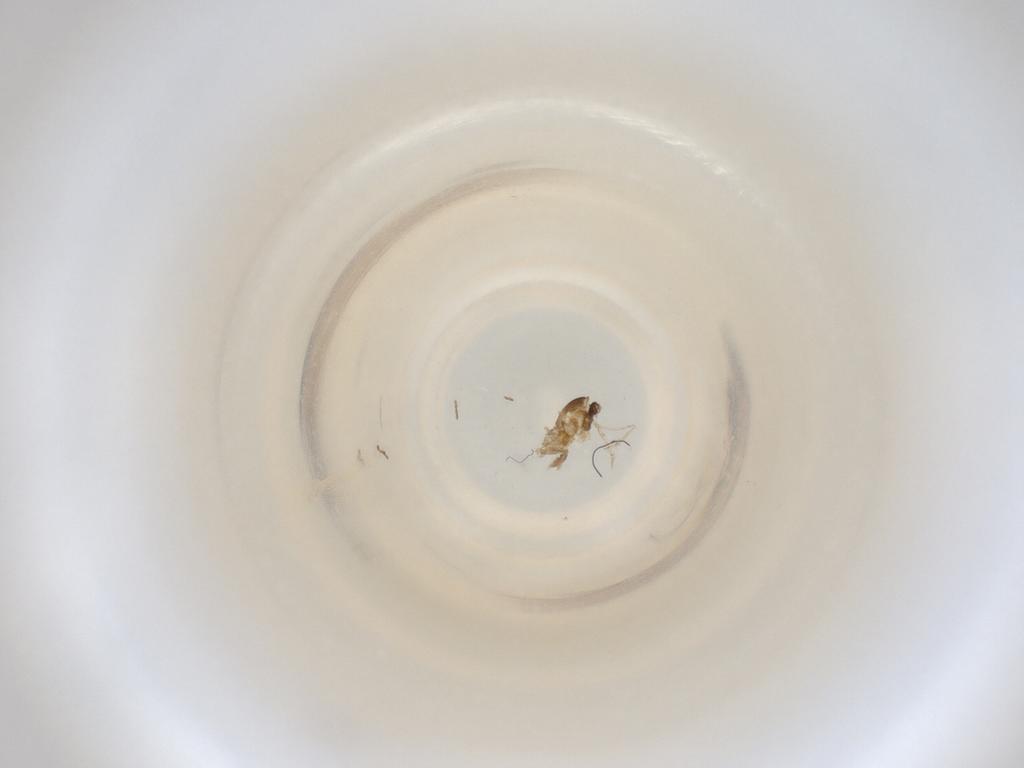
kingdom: Animalia
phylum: Arthropoda
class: Insecta
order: Diptera
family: Cecidomyiidae
